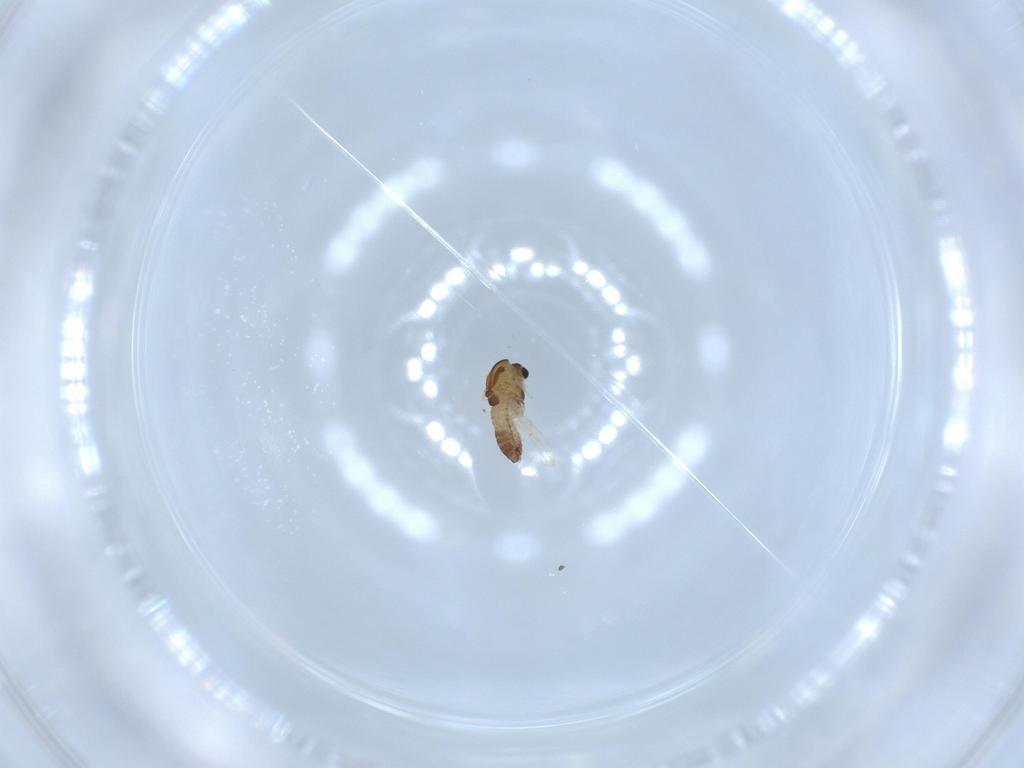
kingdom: Animalia
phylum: Arthropoda
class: Insecta
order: Diptera
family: Chironomidae
